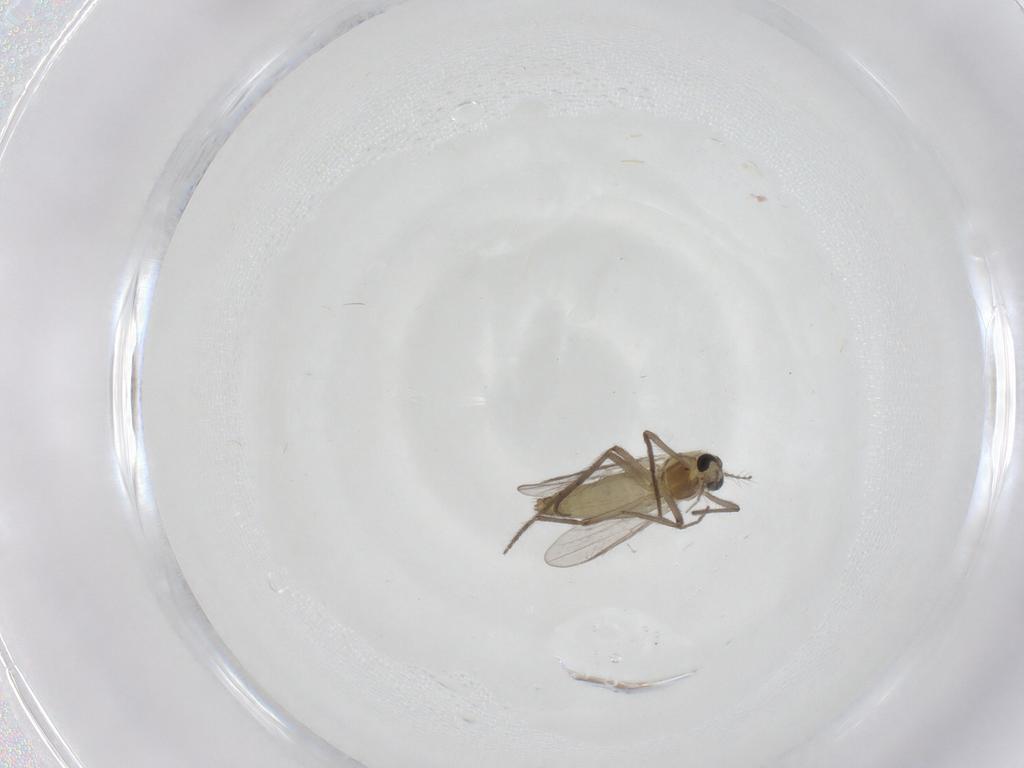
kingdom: Animalia
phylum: Arthropoda
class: Insecta
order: Diptera
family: Chironomidae
